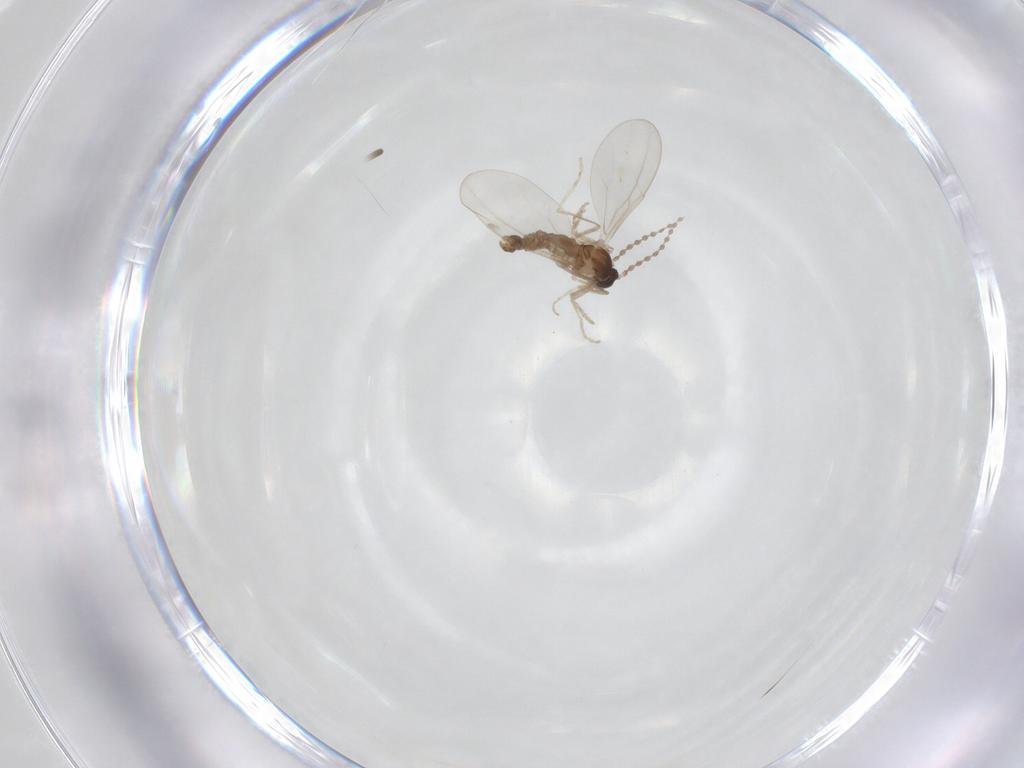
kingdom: Animalia
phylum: Arthropoda
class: Insecta
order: Diptera
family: Cecidomyiidae
